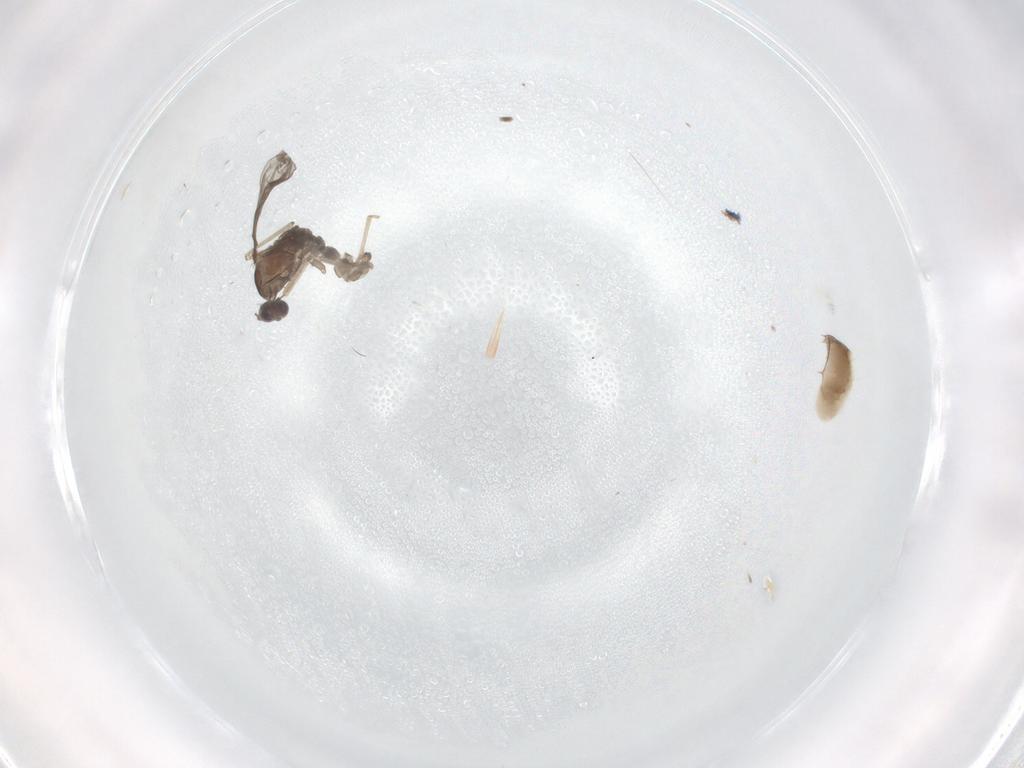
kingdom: Animalia
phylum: Arthropoda
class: Insecta
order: Diptera
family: Cecidomyiidae
